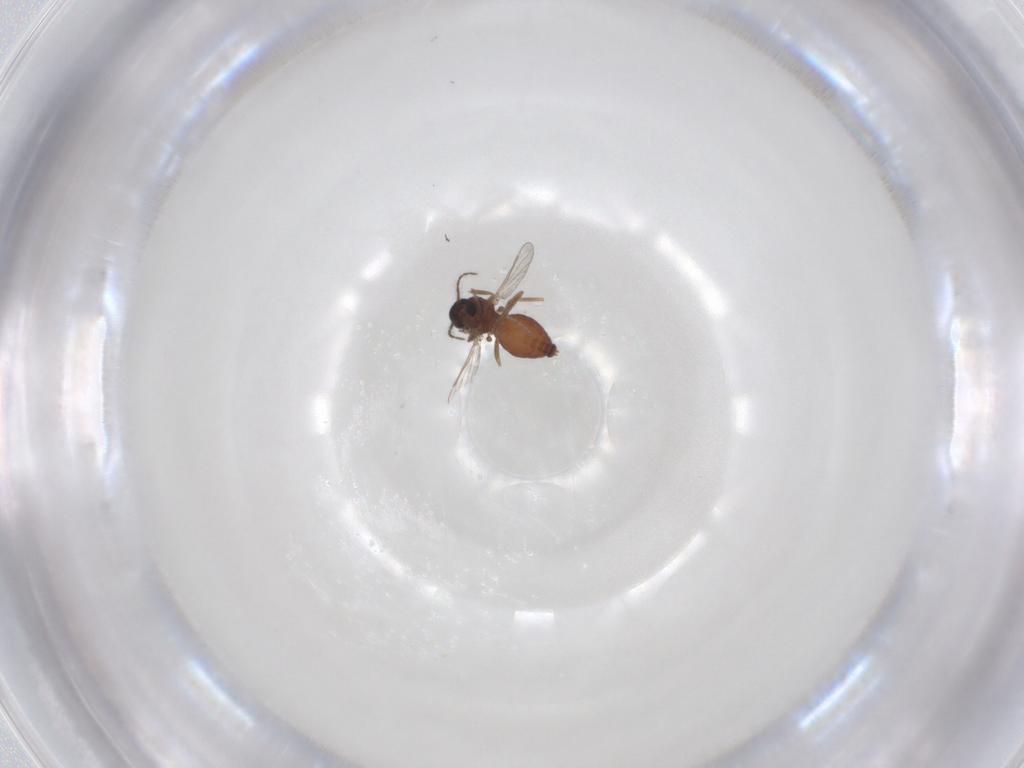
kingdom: Animalia
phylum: Arthropoda
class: Insecta
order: Diptera
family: Ceratopogonidae
